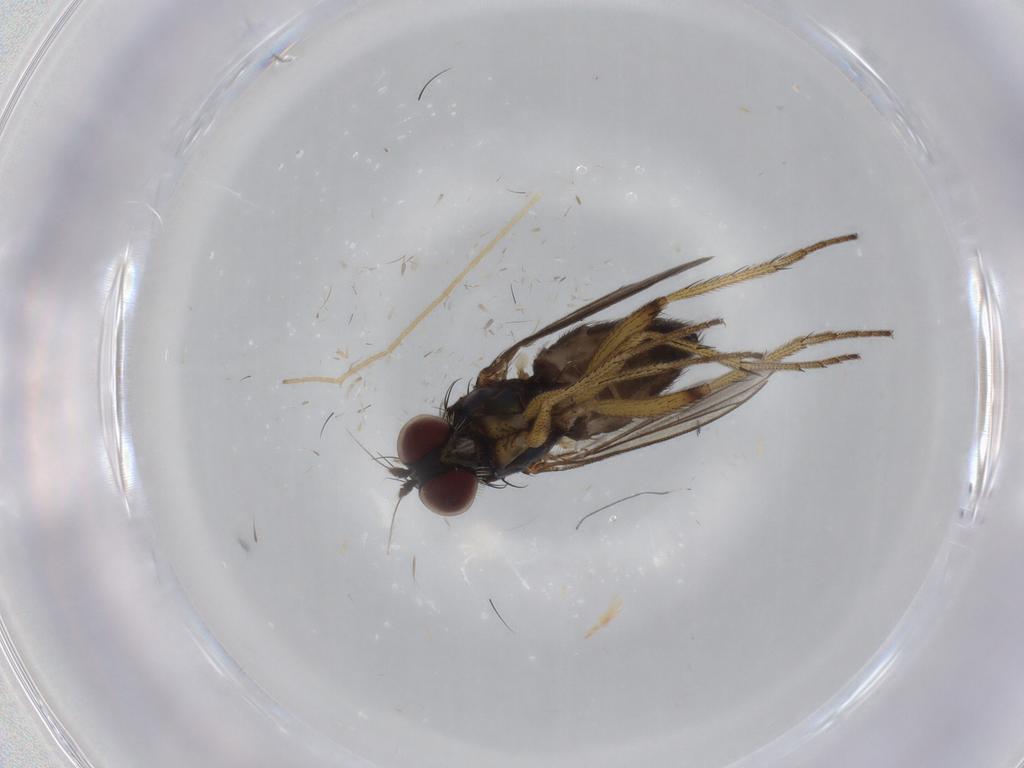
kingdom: Animalia
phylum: Arthropoda
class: Insecta
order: Diptera
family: Dolichopodidae
